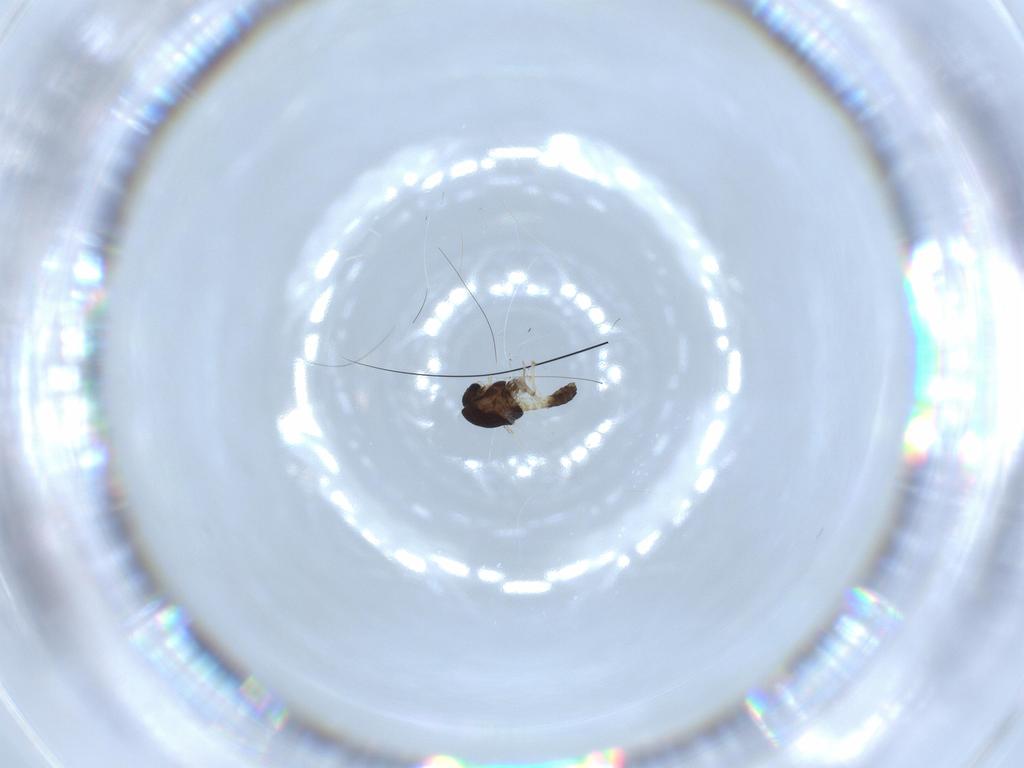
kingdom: Animalia
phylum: Arthropoda
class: Insecta
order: Diptera
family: Chironomidae
